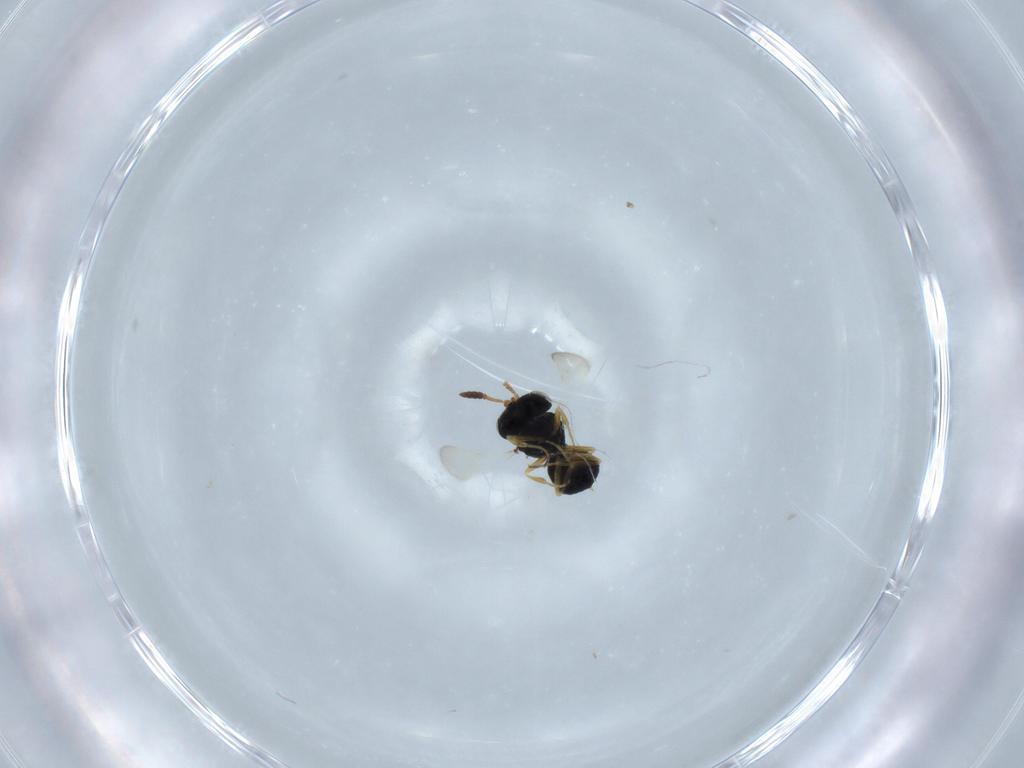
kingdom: Animalia
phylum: Arthropoda
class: Insecta
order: Hymenoptera
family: Scelionidae
